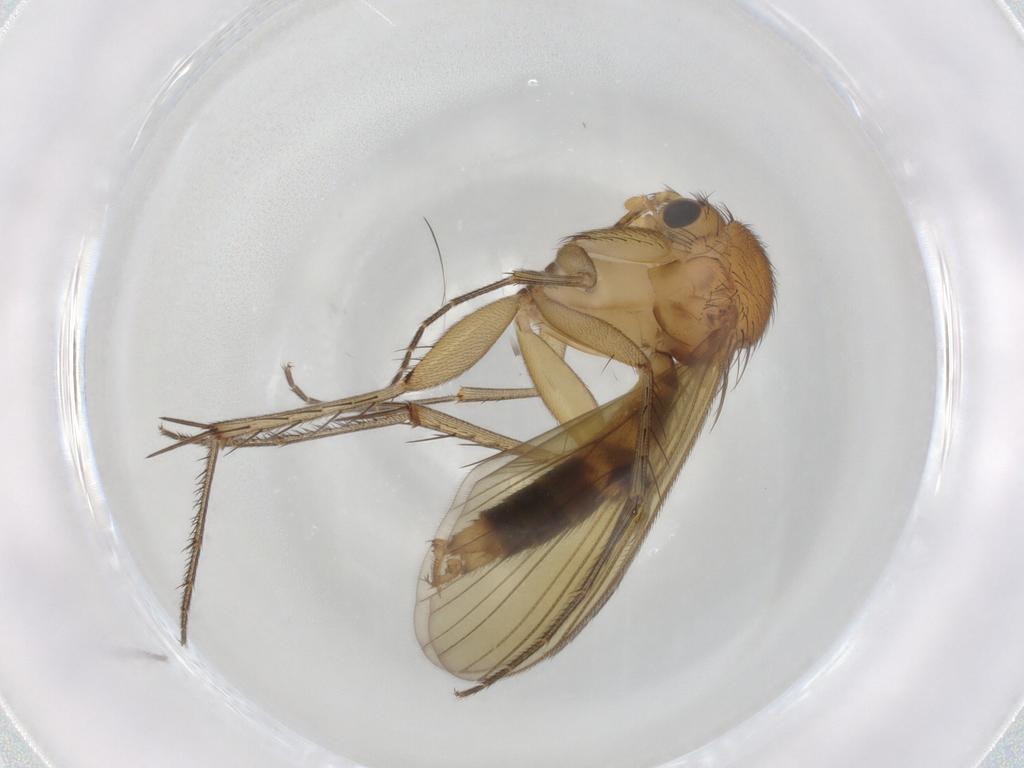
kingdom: Animalia
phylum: Arthropoda
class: Insecta
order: Diptera
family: Mycetophilidae
